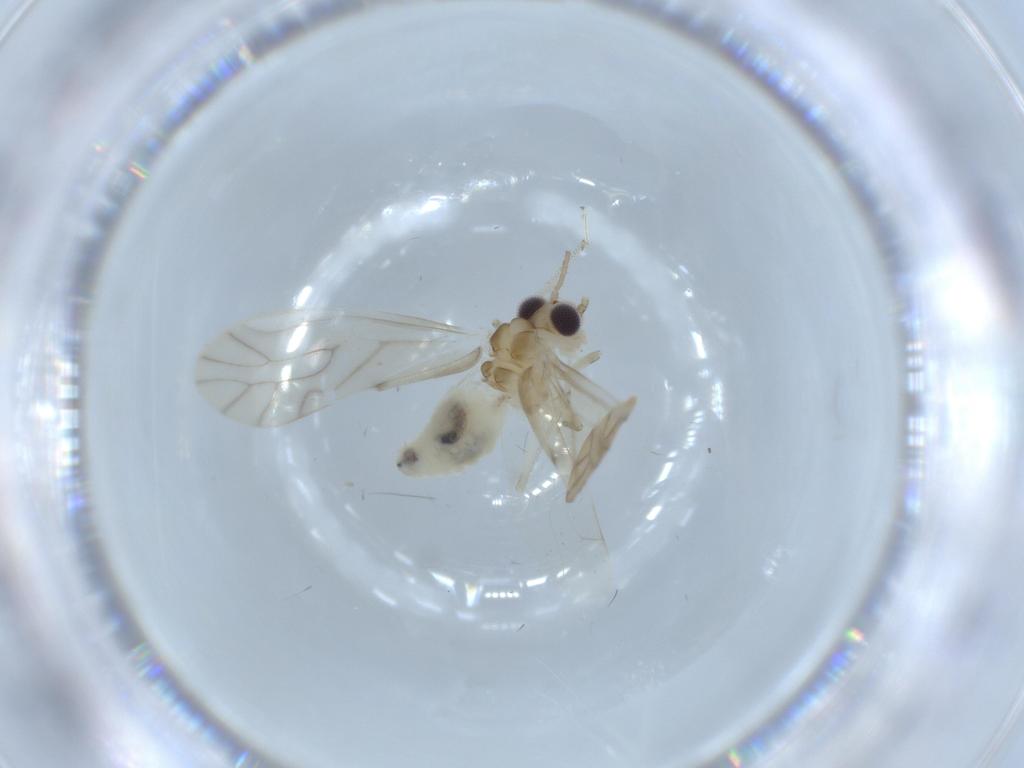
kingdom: Animalia
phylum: Arthropoda
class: Insecta
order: Psocodea
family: Caeciliusidae
